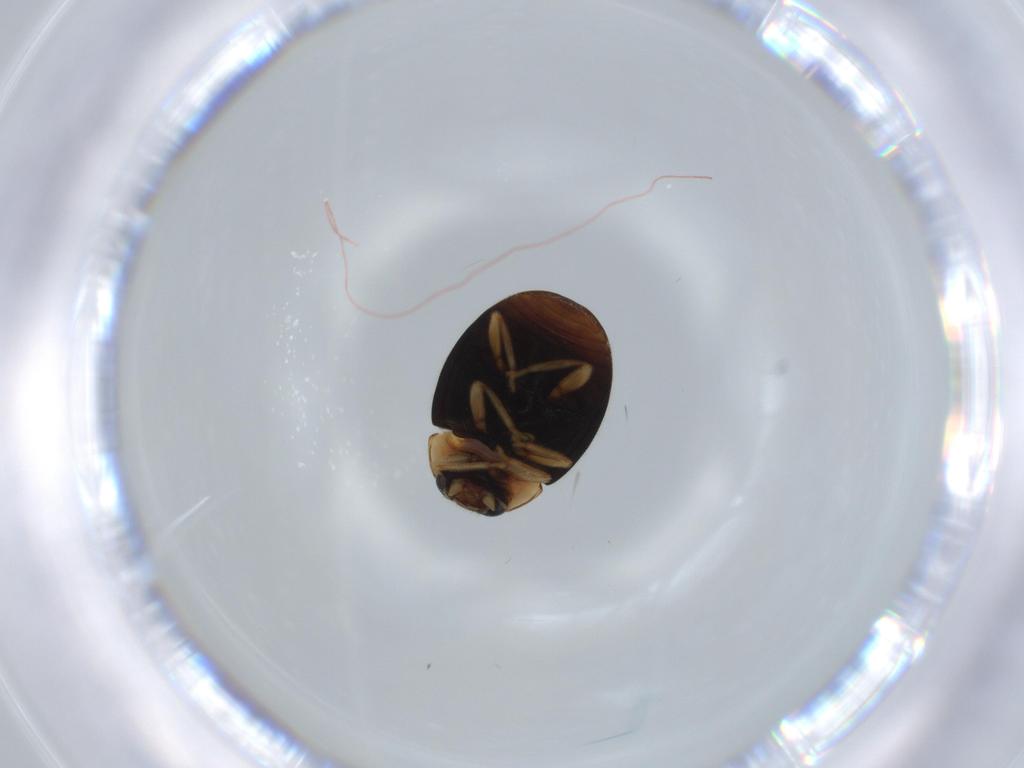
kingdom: Animalia
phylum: Arthropoda
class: Insecta
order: Coleoptera
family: Coccinellidae
